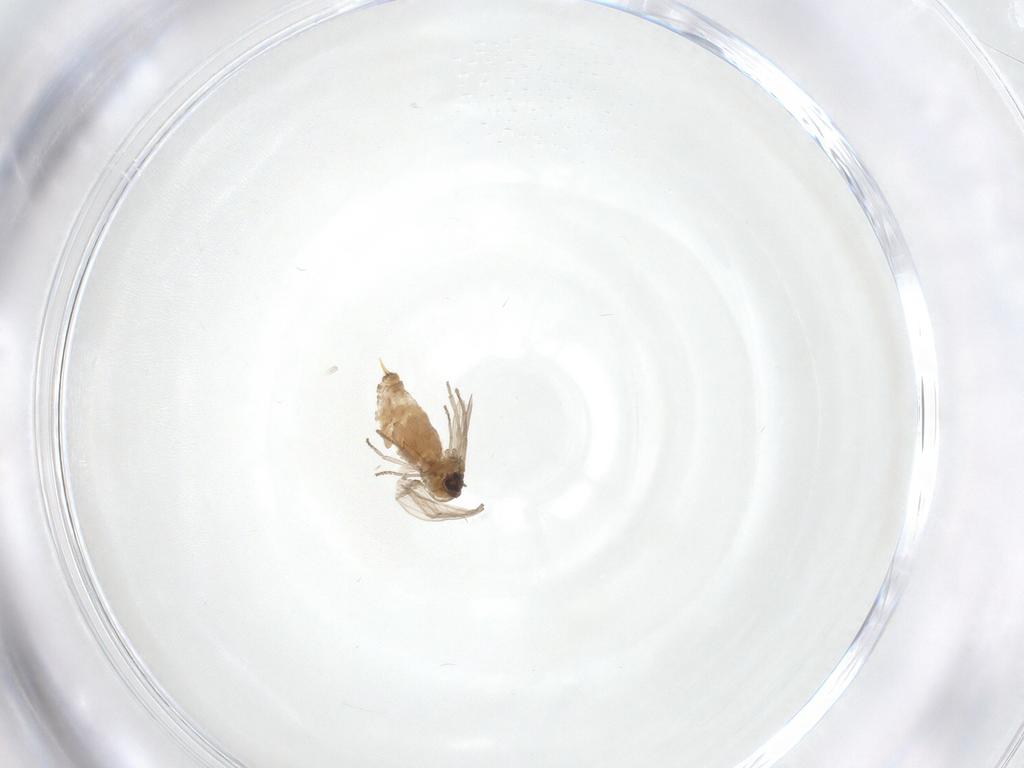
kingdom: Animalia
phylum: Arthropoda
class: Insecta
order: Diptera
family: Psychodidae
